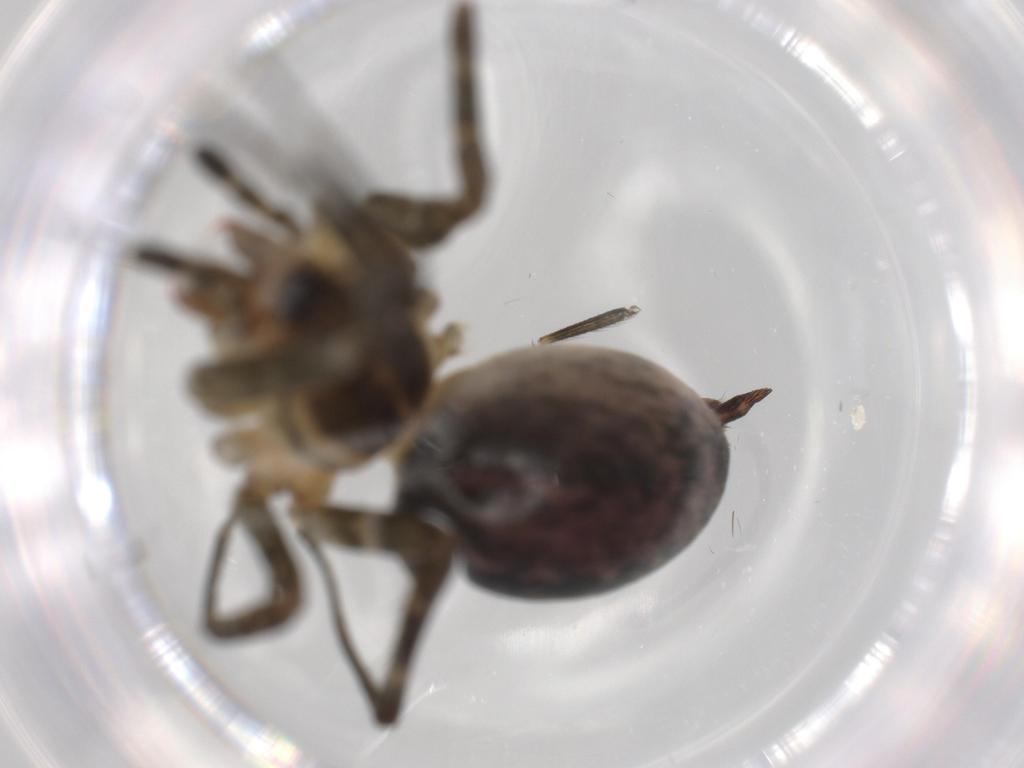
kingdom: Animalia
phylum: Arthropoda
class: Arachnida
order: Araneae
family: Agelenidae
